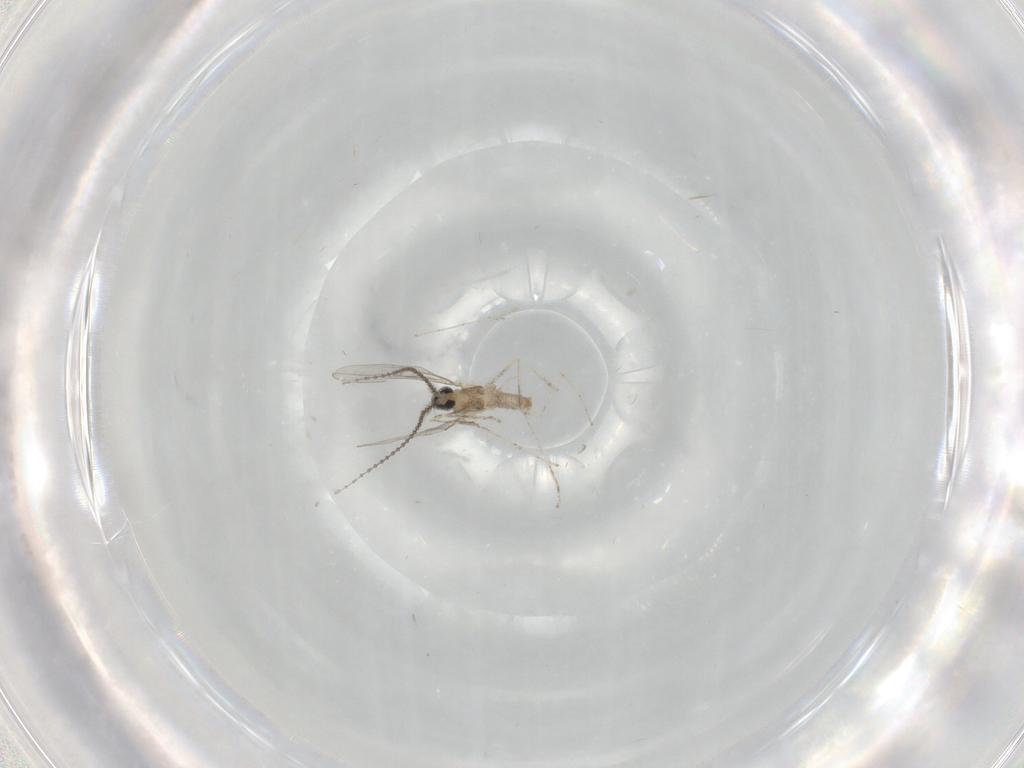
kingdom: Animalia
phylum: Arthropoda
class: Insecta
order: Diptera
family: Cecidomyiidae
